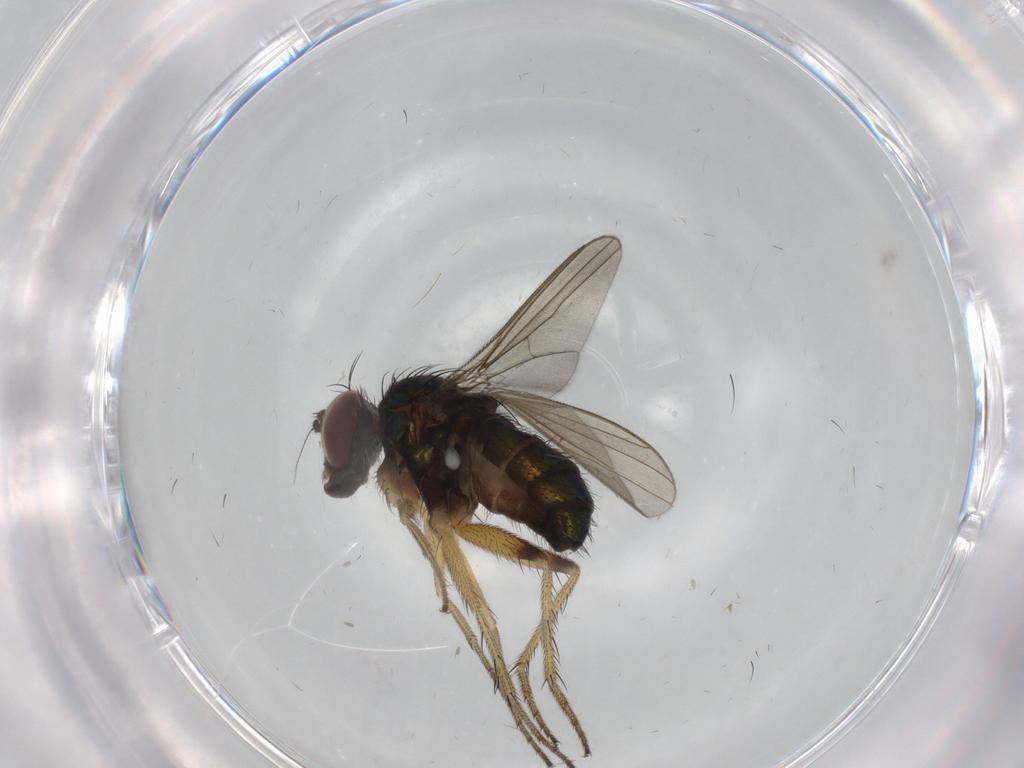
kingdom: Animalia
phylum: Arthropoda
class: Insecta
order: Diptera
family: Dolichopodidae
